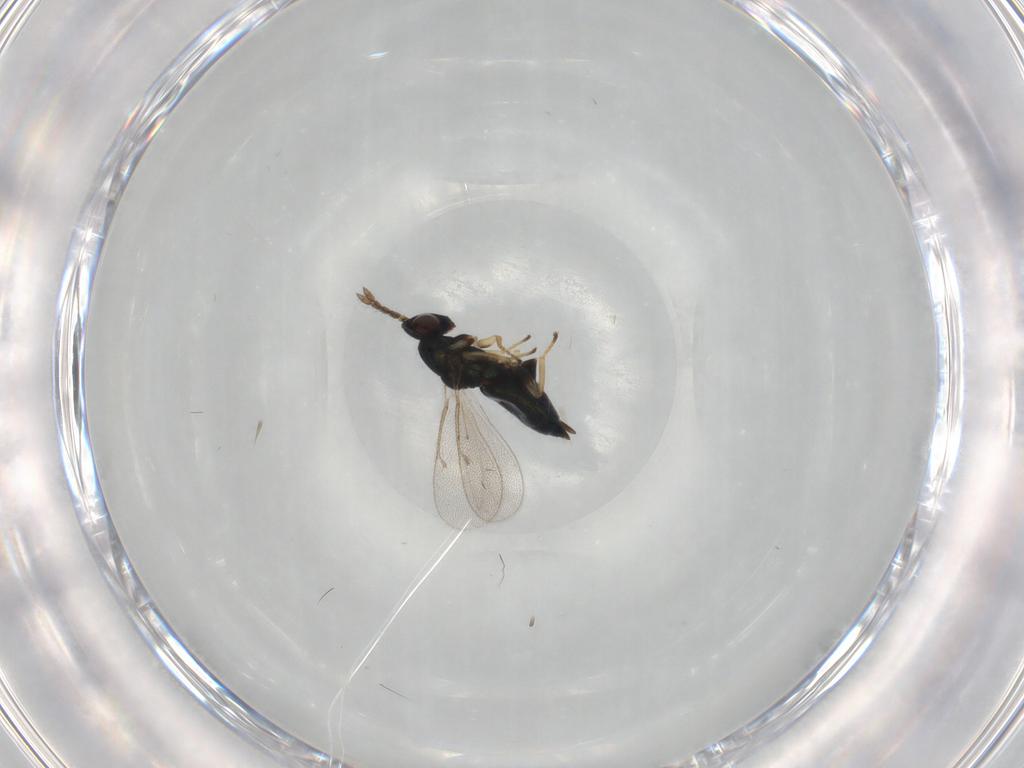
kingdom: Animalia
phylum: Arthropoda
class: Insecta
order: Hymenoptera
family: Eulophidae
